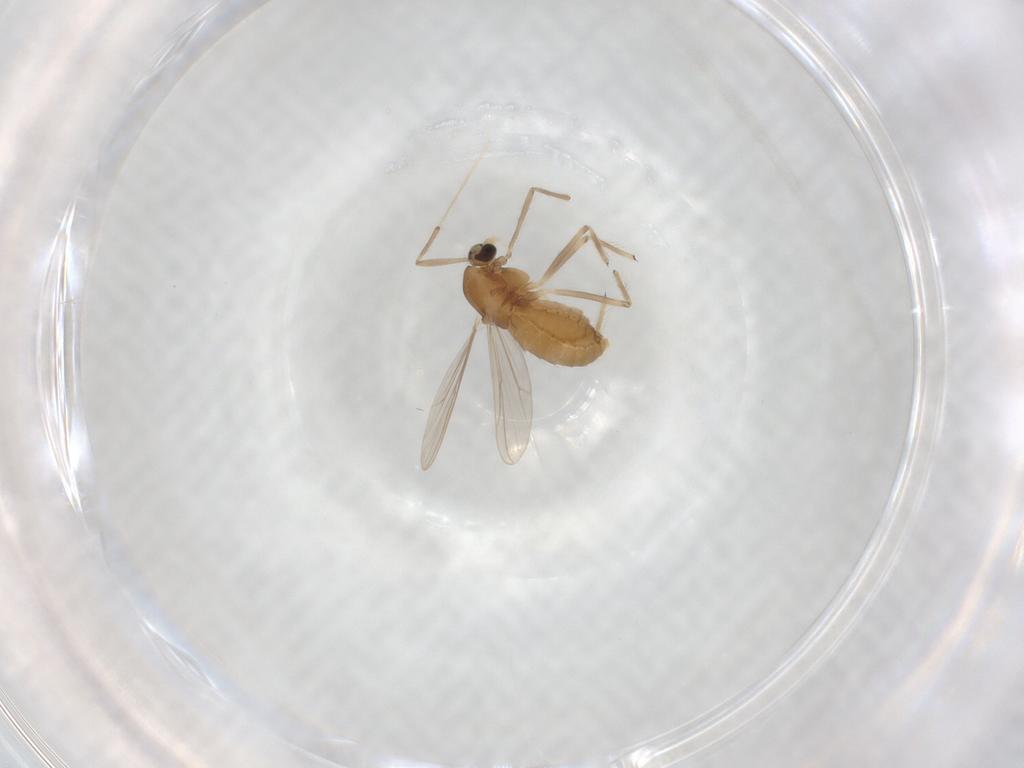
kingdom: Animalia
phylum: Arthropoda
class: Insecta
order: Diptera
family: Chironomidae
